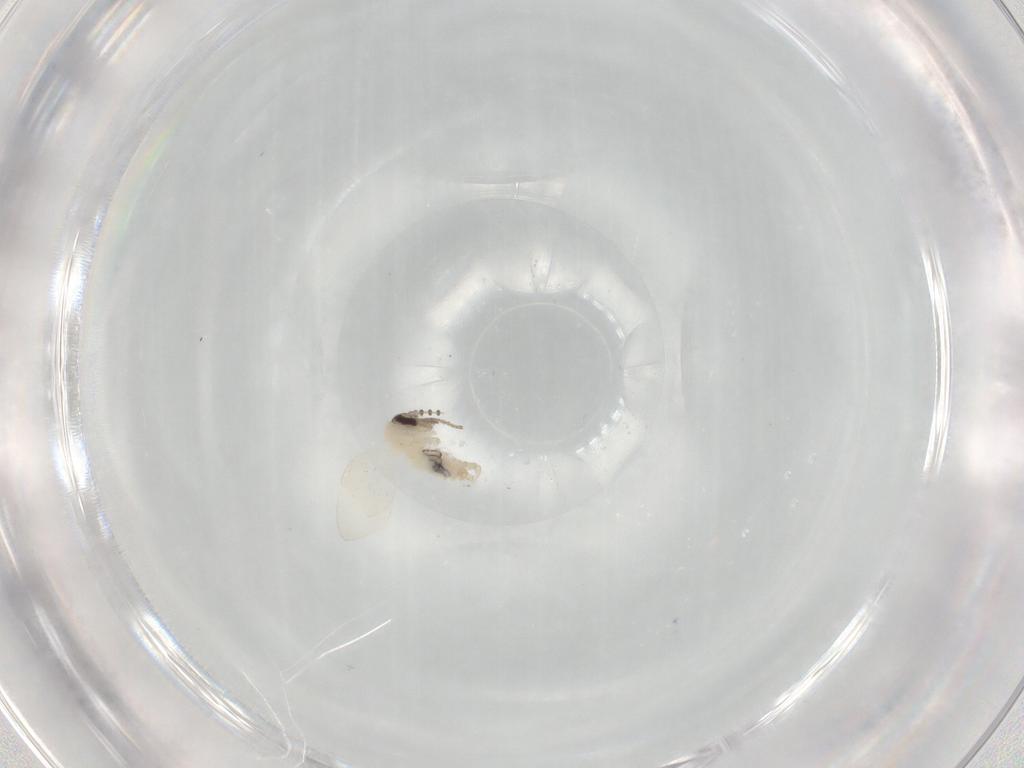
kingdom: Animalia
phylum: Arthropoda
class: Insecta
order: Diptera
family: Psychodidae
